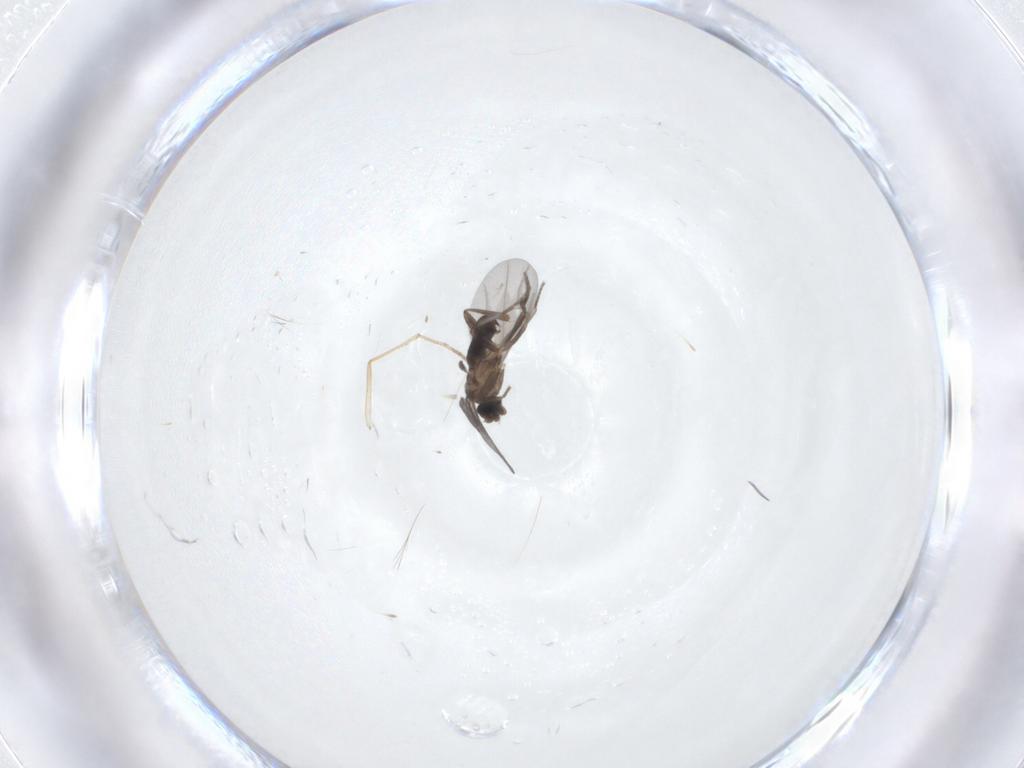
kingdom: Animalia
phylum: Arthropoda
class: Insecta
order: Diptera
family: Psychodidae
